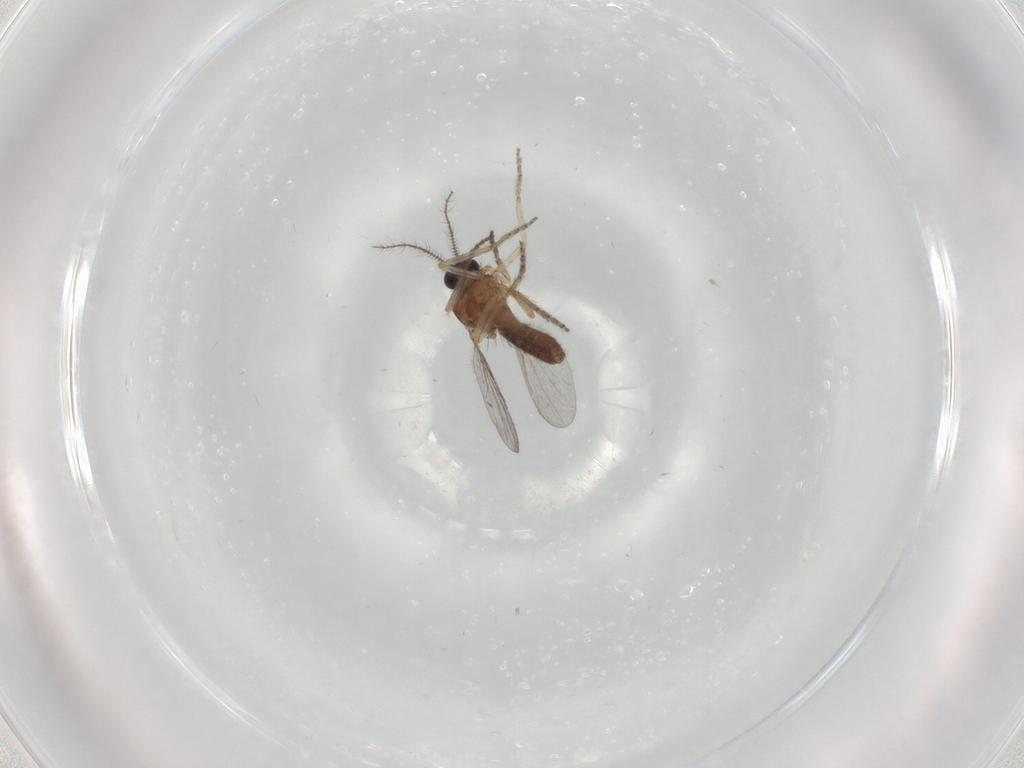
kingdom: Animalia
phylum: Arthropoda
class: Insecta
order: Diptera
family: Ceratopogonidae
